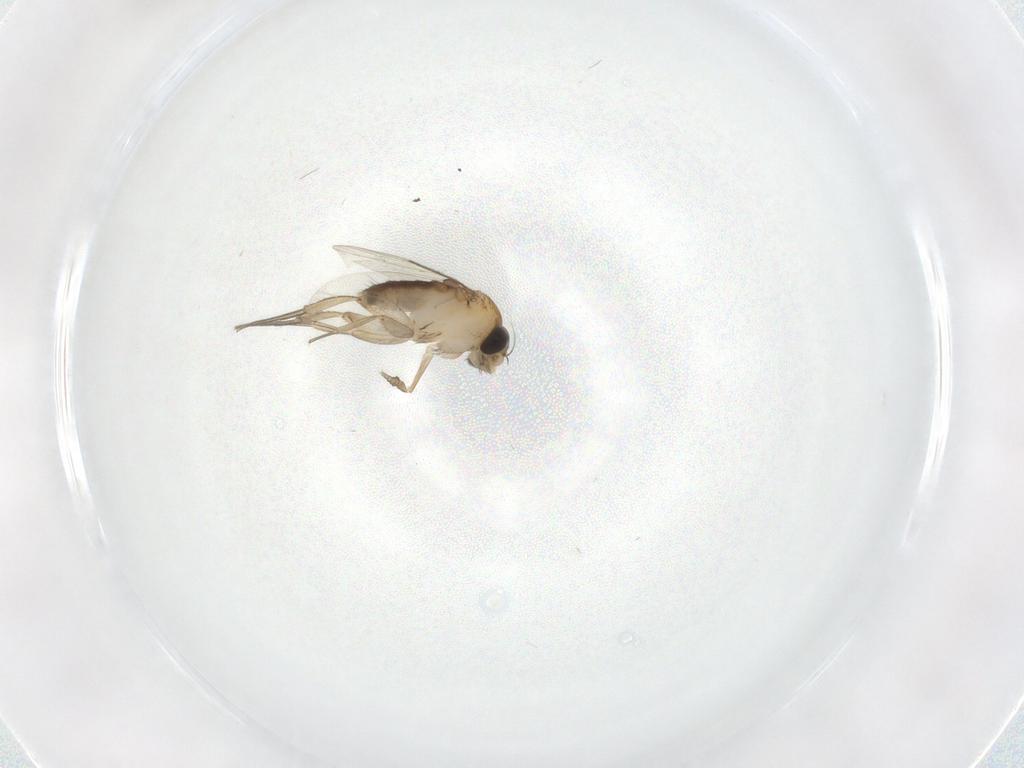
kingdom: Animalia
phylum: Arthropoda
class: Insecta
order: Diptera
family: Phoridae
